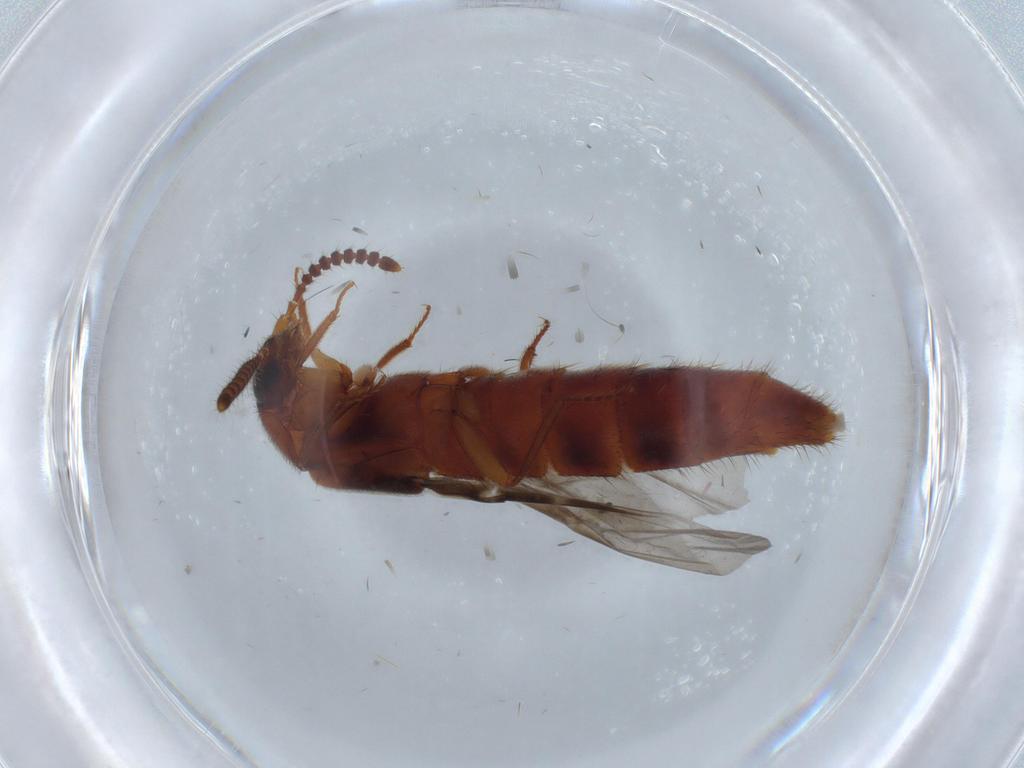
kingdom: Animalia
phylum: Arthropoda
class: Insecta
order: Coleoptera
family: Staphylinidae
